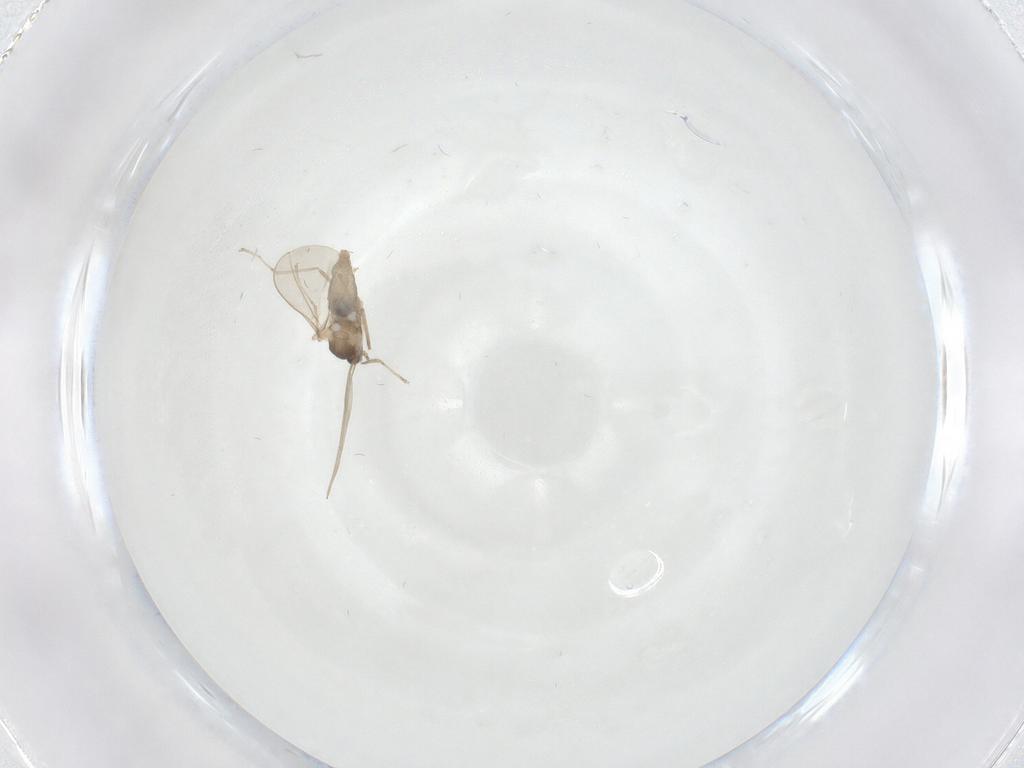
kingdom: Animalia
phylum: Arthropoda
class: Insecta
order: Diptera
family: Cecidomyiidae
